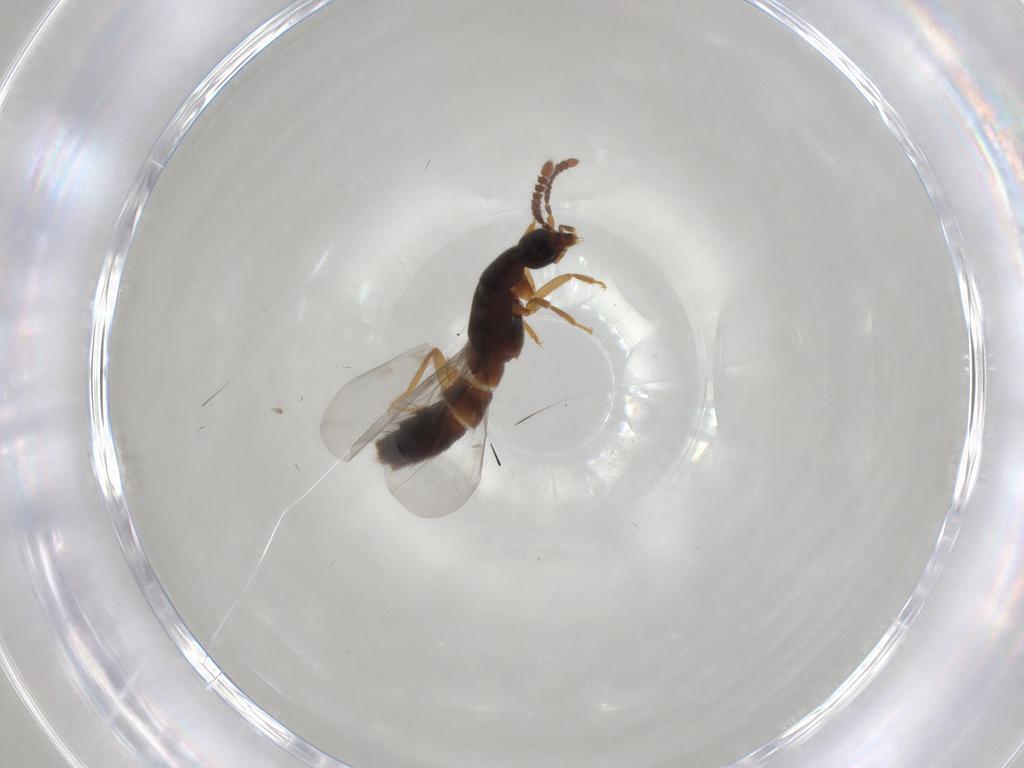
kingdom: Animalia
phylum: Arthropoda
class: Insecta
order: Coleoptera
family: Staphylinidae
